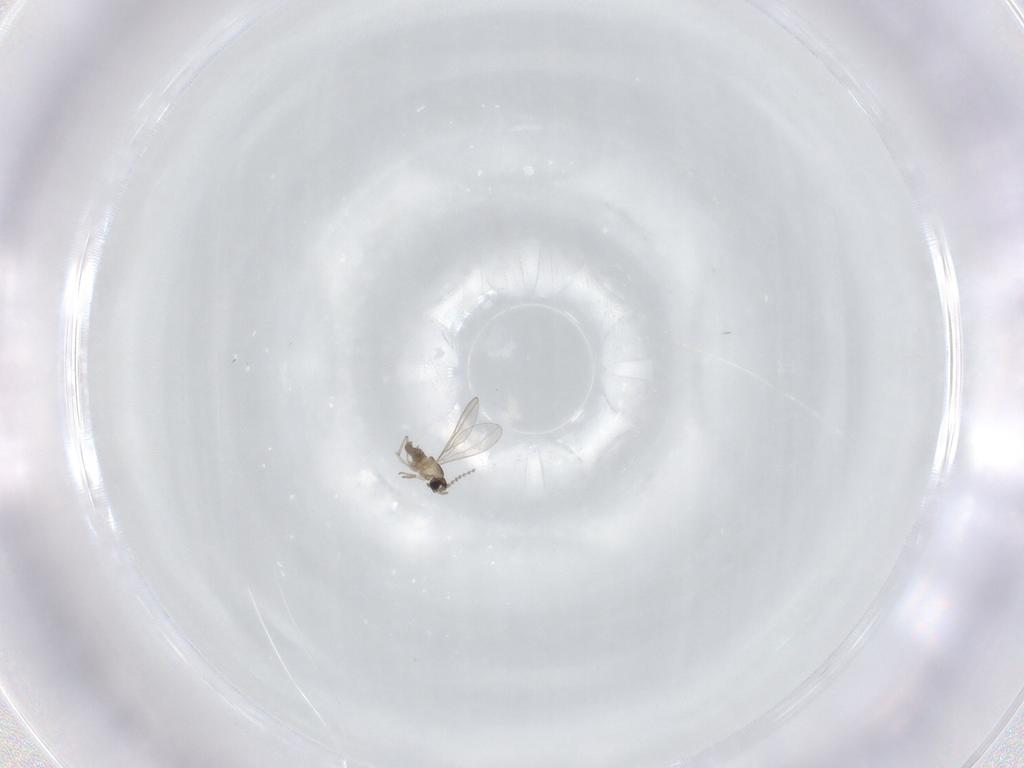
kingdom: Animalia
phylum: Arthropoda
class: Insecta
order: Diptera
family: Cecidomyiidae
